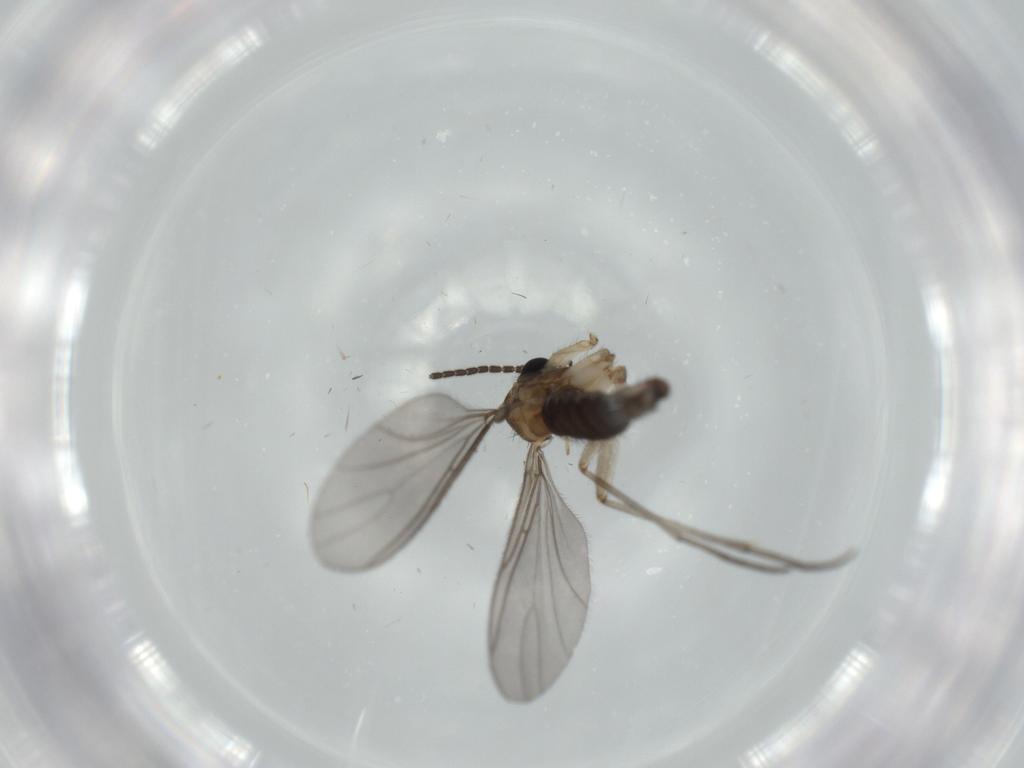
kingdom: Animalia
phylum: Arthropoda
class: Insecta
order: Diptera
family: Sciaridae
